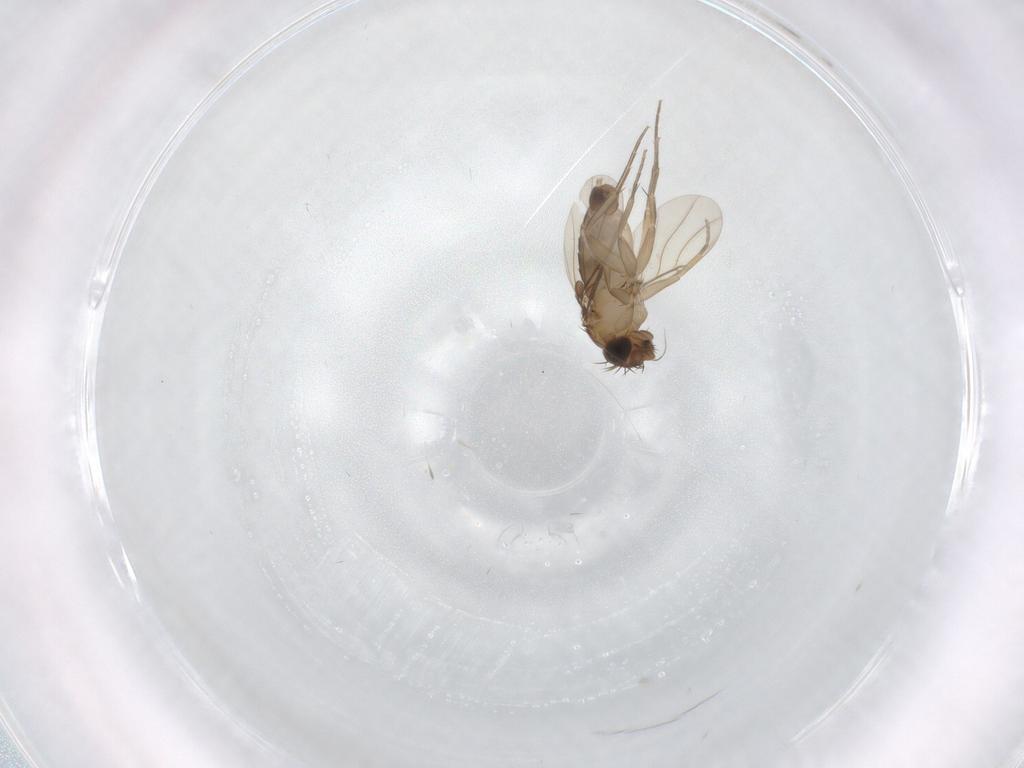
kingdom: Animalia
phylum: Arthropoda
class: Insecta
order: Diptera
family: Phoridae
